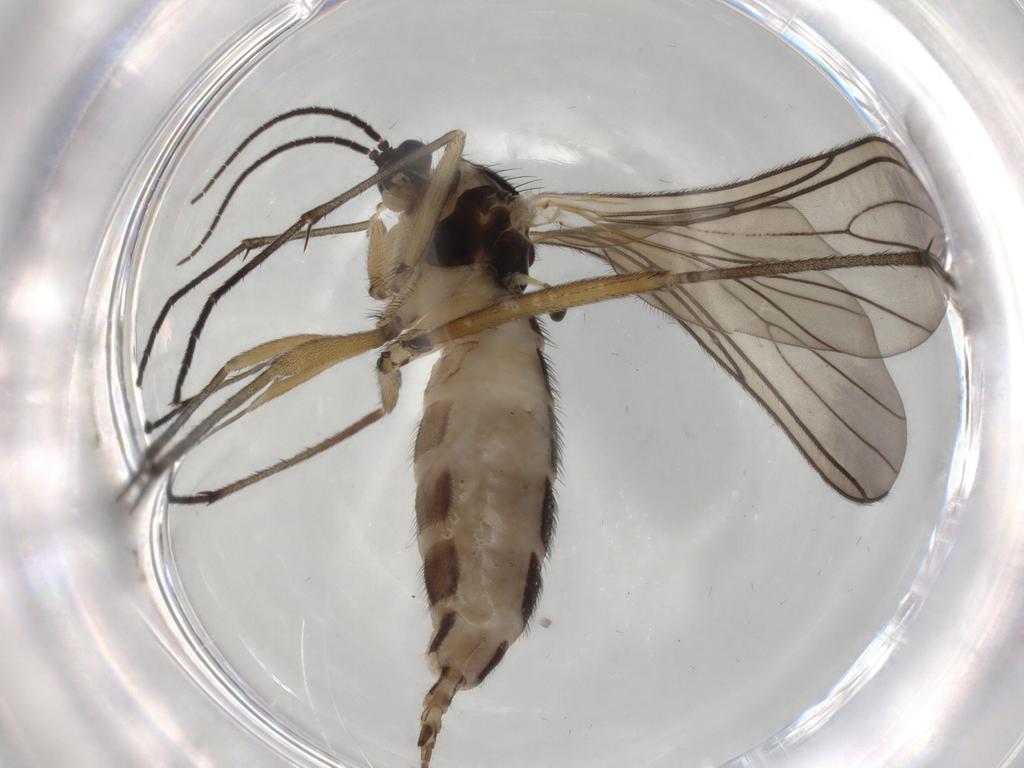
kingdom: Animalia
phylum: Arthropoda
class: Insecta
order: Diptera
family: Sciaridae
